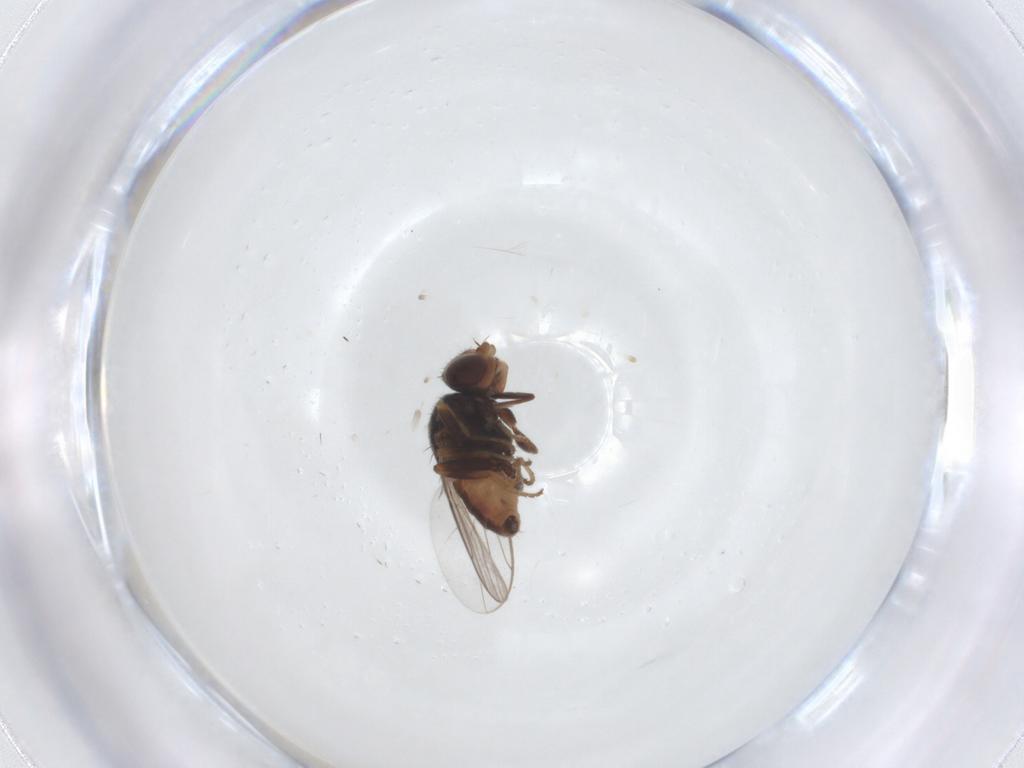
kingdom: Animalia
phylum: Arthropoda
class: Insecta
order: Diptera
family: Chloropidae
